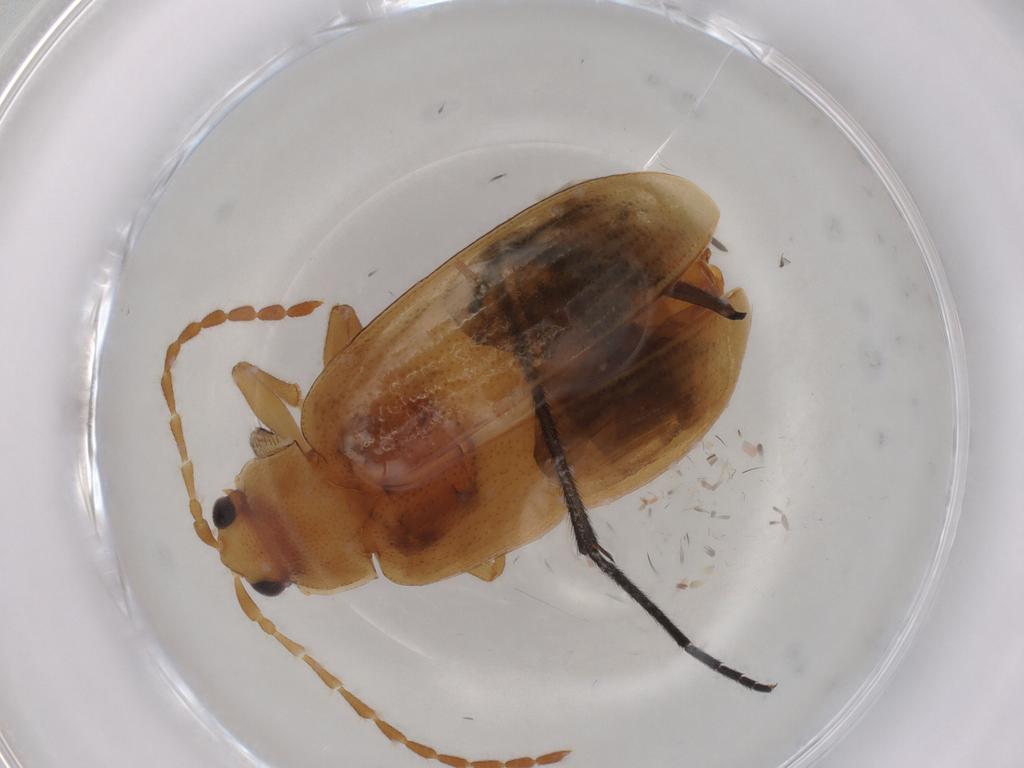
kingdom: Animalia
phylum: Arthropoda
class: Insecta
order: Coleoptera
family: Chrysomelidae
